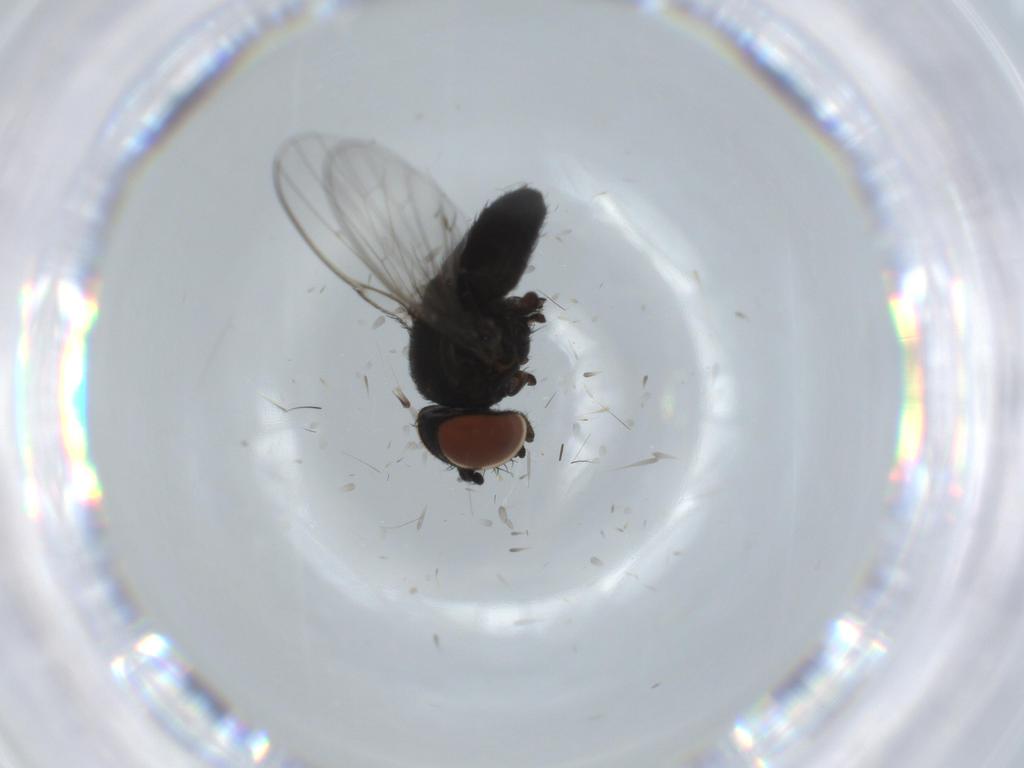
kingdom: Animalia
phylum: Arthropoda
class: Insecta
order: Diptera
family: Milichiidae
